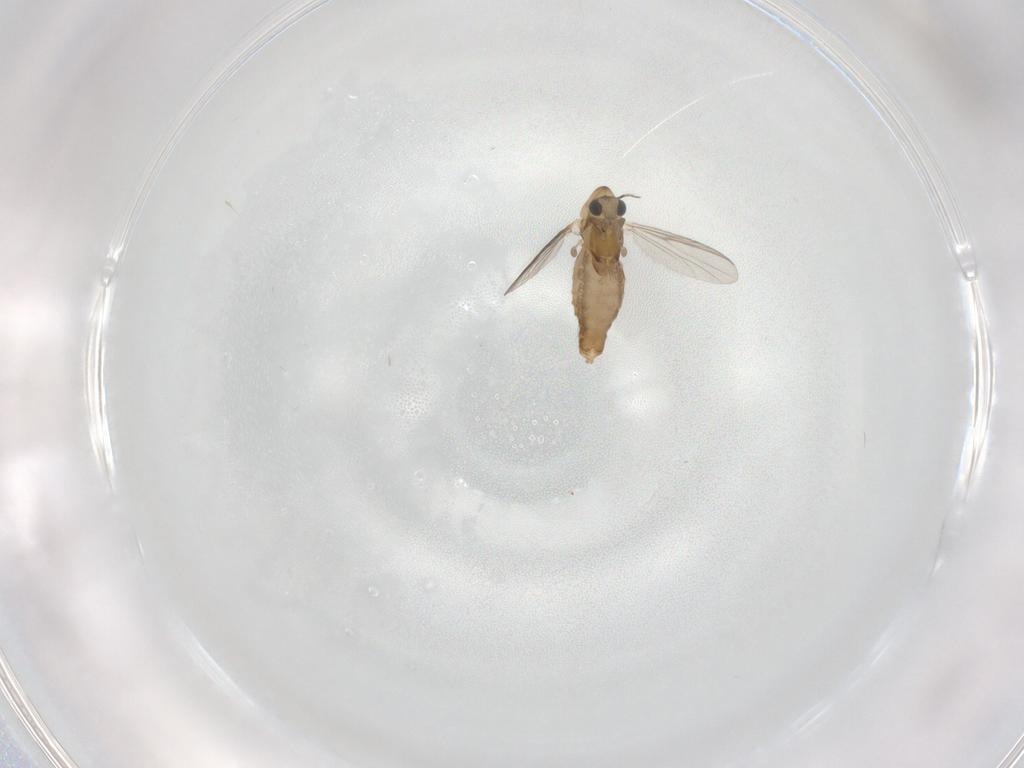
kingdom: Animalia
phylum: Arthropoda
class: Insecta
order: Diptera
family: Chironomidae
